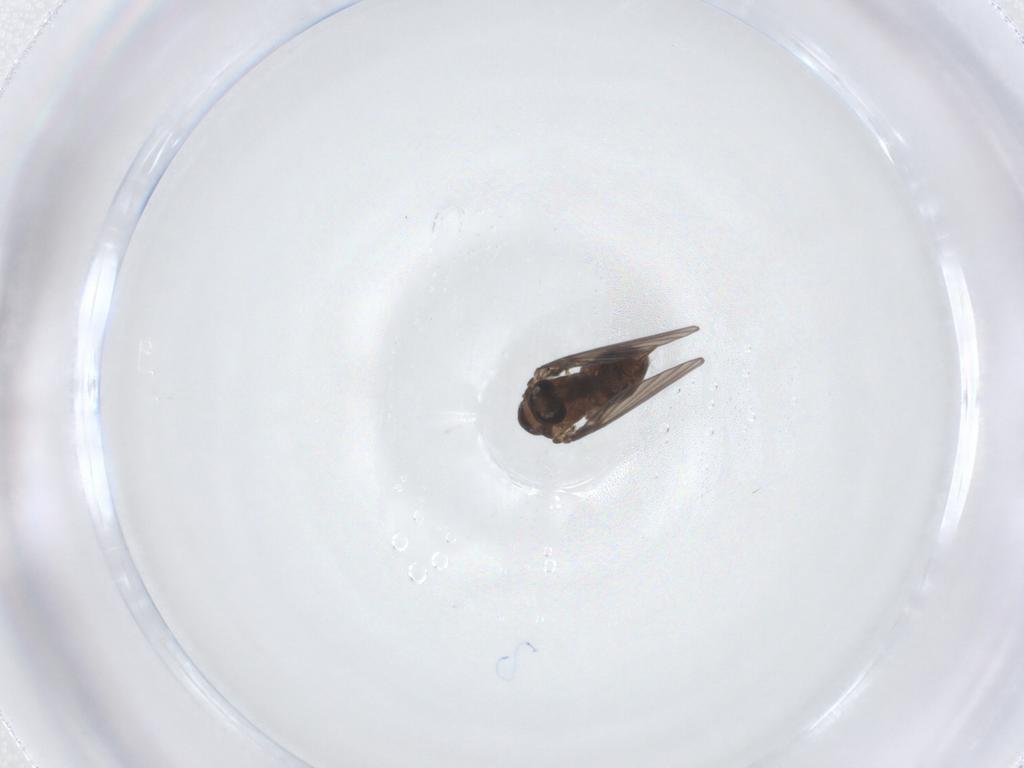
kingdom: Animalia
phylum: Arthropoda
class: Insecta
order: Diptera
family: Psychodidae
